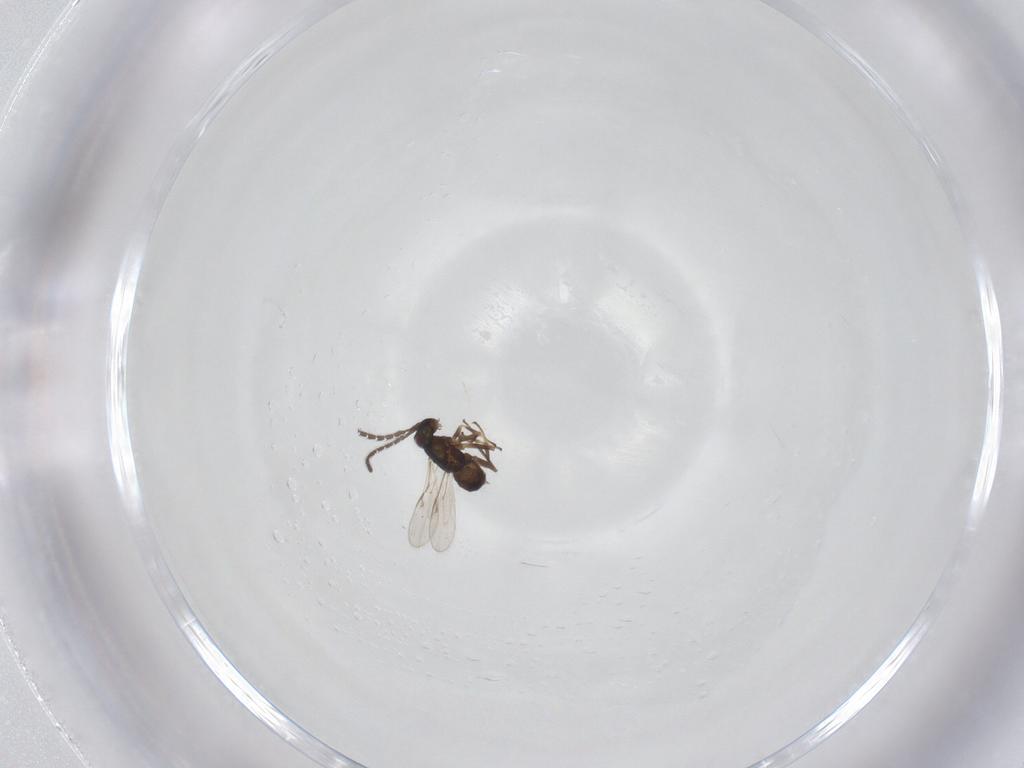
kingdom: Animalia
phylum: Arthropoda
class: Insecta
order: Hymenoptera
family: Encyrtidae
